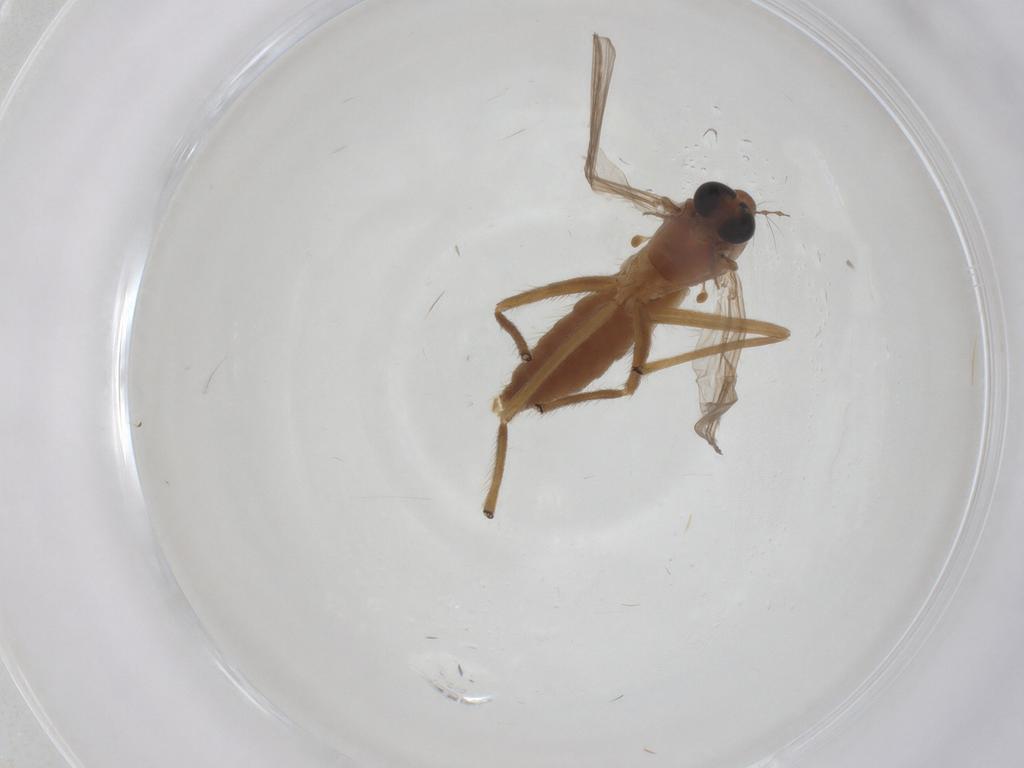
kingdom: Animalia
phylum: Arthropoda
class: Insecta
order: Diptera
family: Chironomidae
